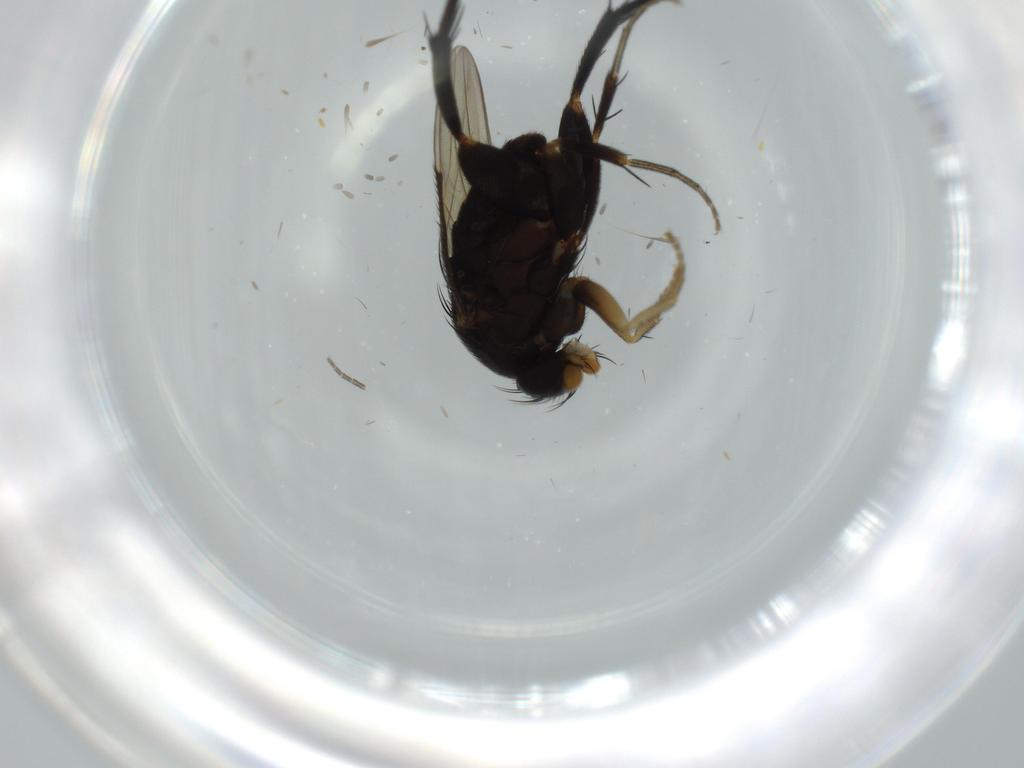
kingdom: Animalia
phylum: Arthropoda
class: Insecta
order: Diptera
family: Phoridae
